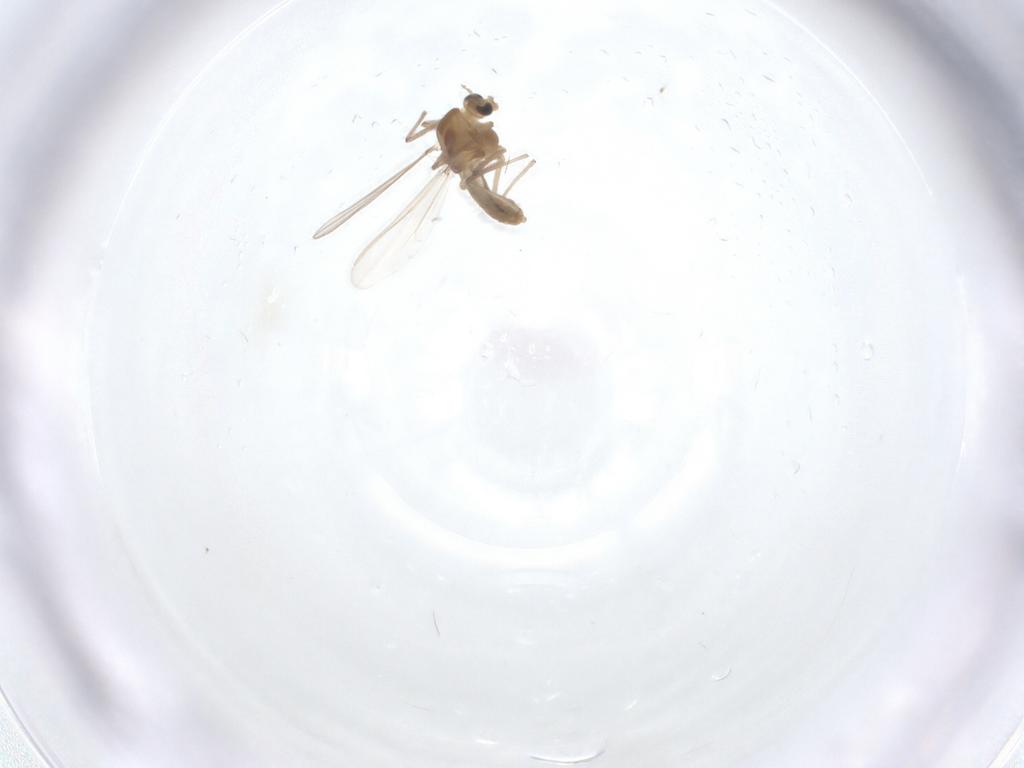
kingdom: Animalia
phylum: Arthropoda
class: Insecta
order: Diptera
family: Chironomidae
